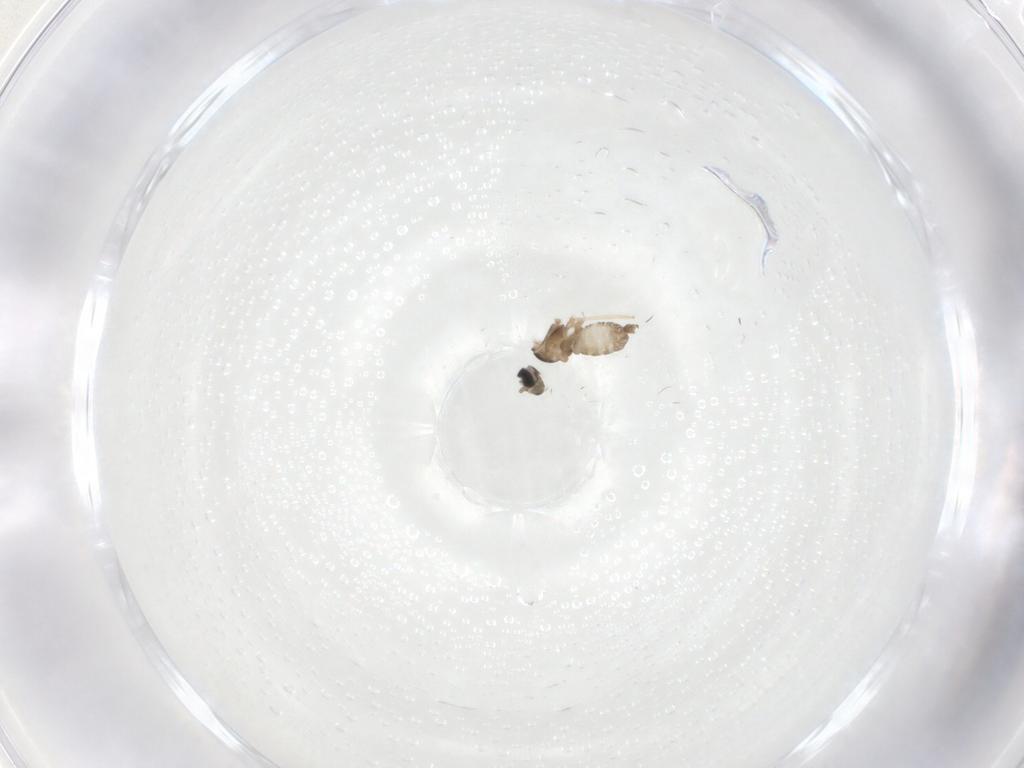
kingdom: Animalia
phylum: Arthropoda
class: Insecta
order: Diptera
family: Cecidomyiidae
